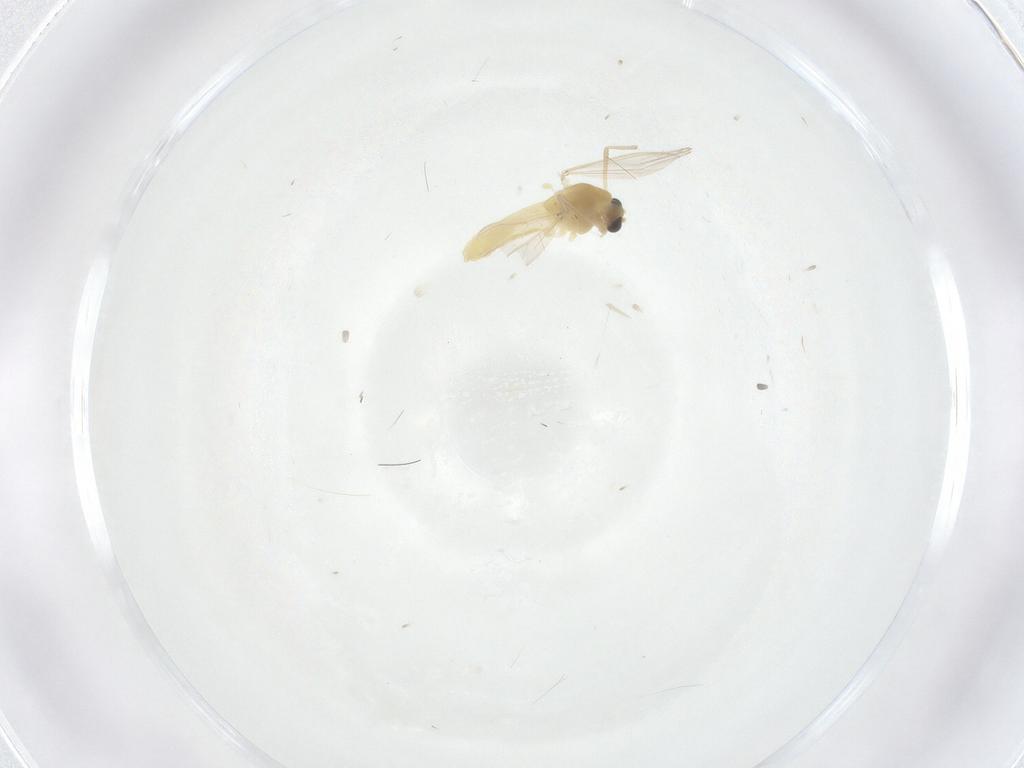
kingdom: Animalia
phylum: Arthropoda
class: Insecta
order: Diptera
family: Chironomidae
